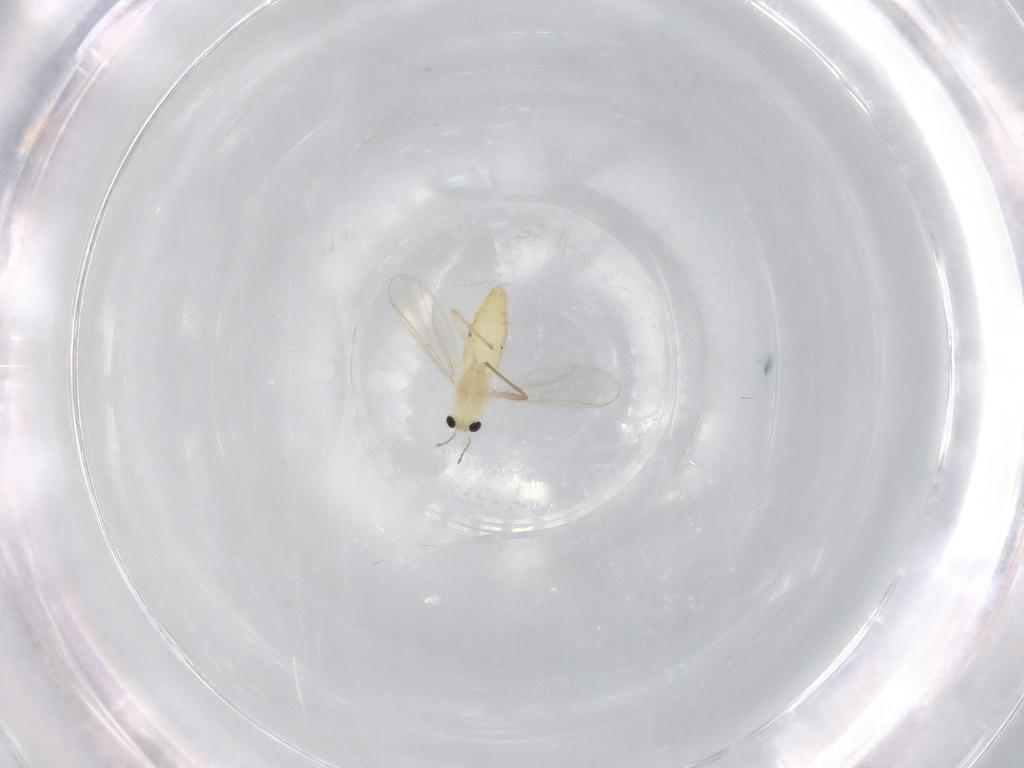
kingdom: Animalia
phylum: Arthropoda
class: Insecta
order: Diptera
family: Chironomidae
